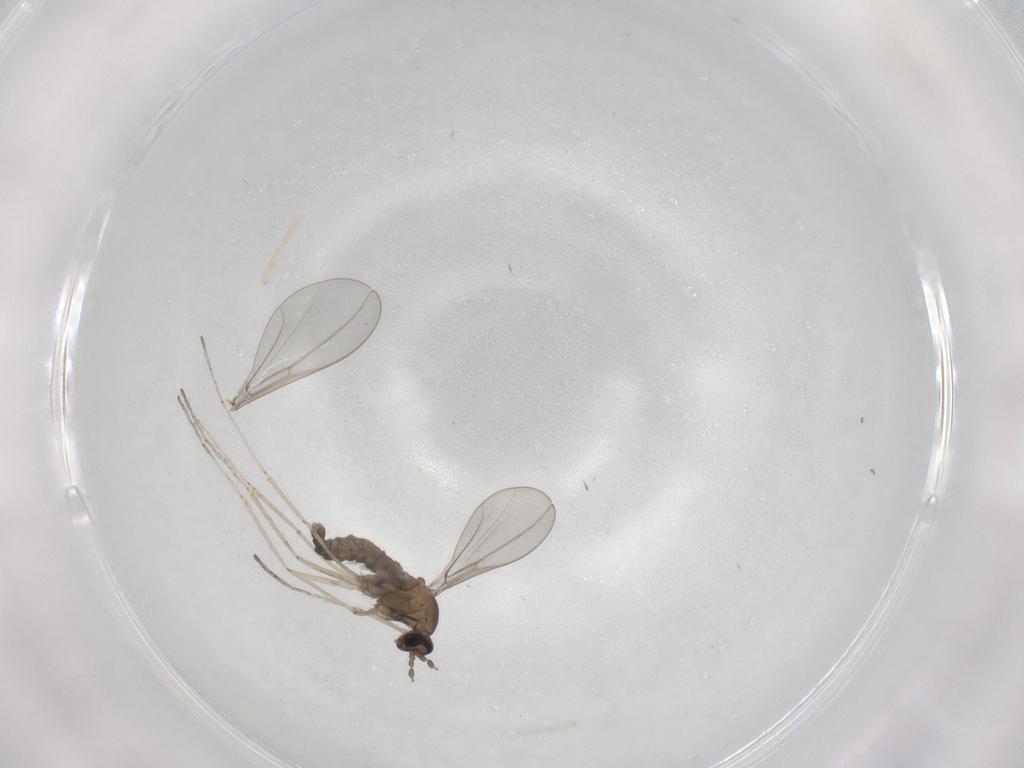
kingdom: Animalia
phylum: Arthropoda
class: Insecta
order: Diptera
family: Cecidomyiidae
